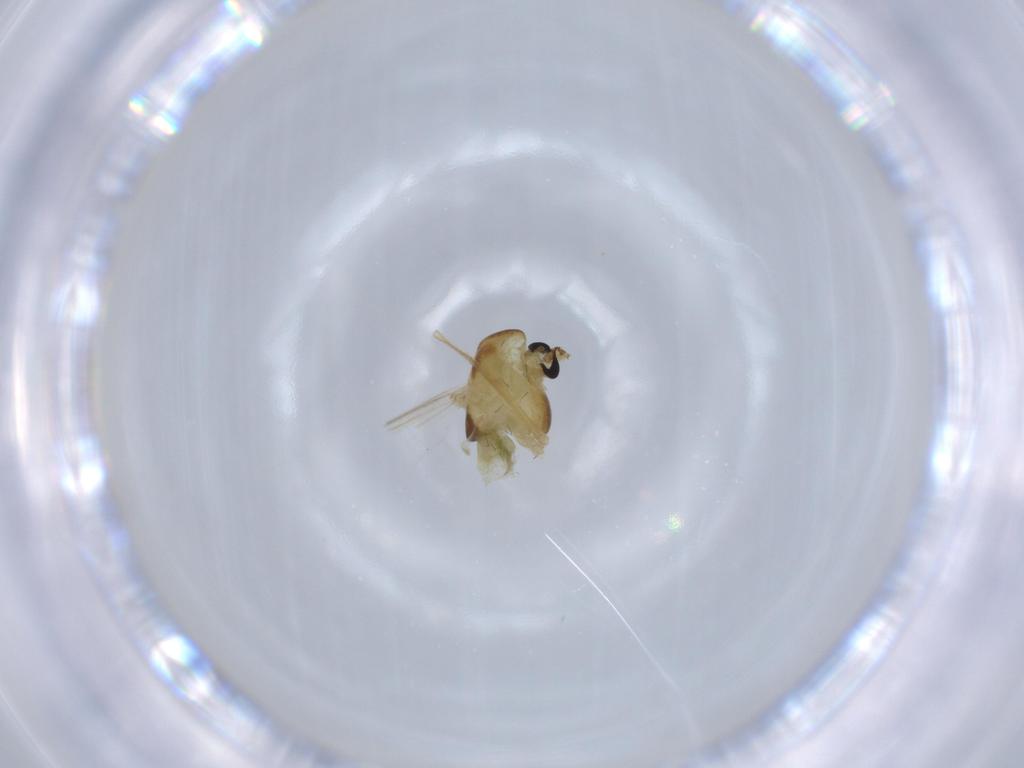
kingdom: Animalia
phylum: Arthropoda
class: Insecta
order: Diptera
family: Chironomidae
